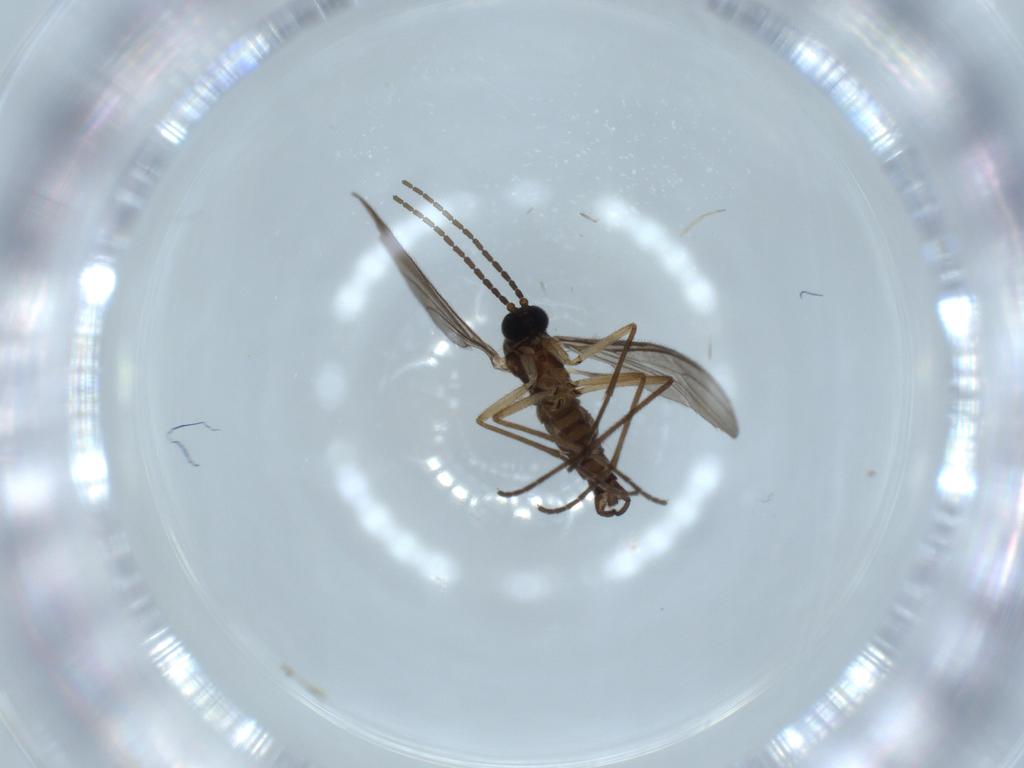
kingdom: Animalia
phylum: Arthropoda
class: Insecta
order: Diptera
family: Sciaridae
